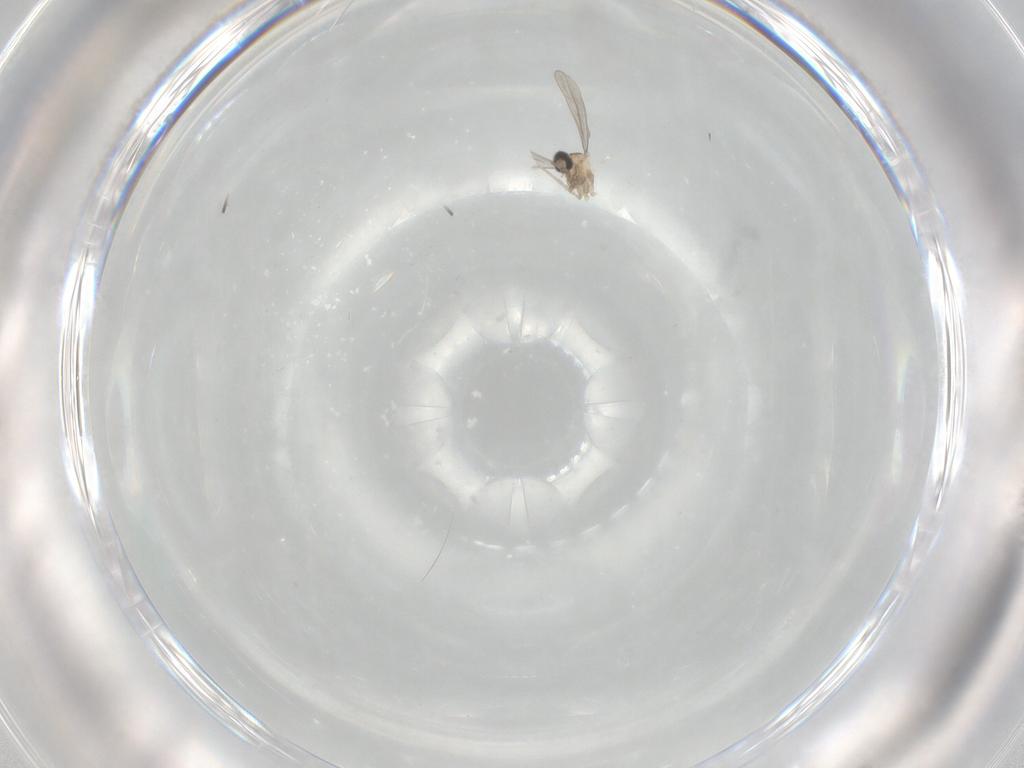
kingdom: Animalia
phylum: Arthropoda
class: Insecta
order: Diptera
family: Cecidomyiidae
